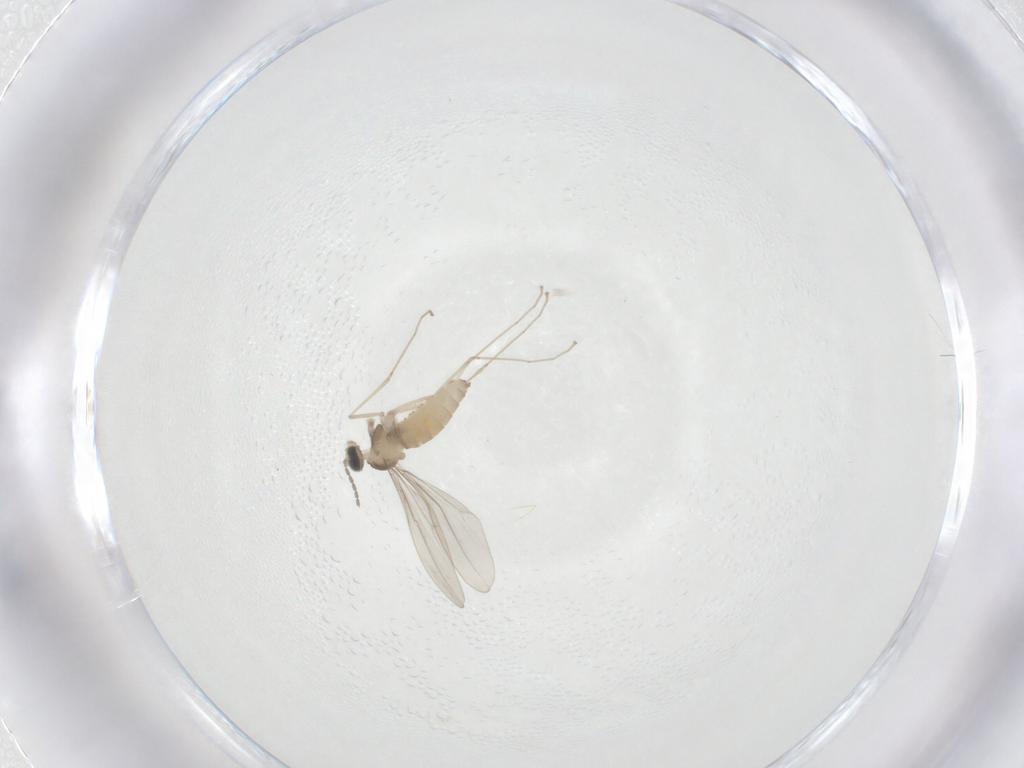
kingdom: Animalia
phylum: Arthropoda
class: Insecta
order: Diptera
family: Cecidomyiidae
